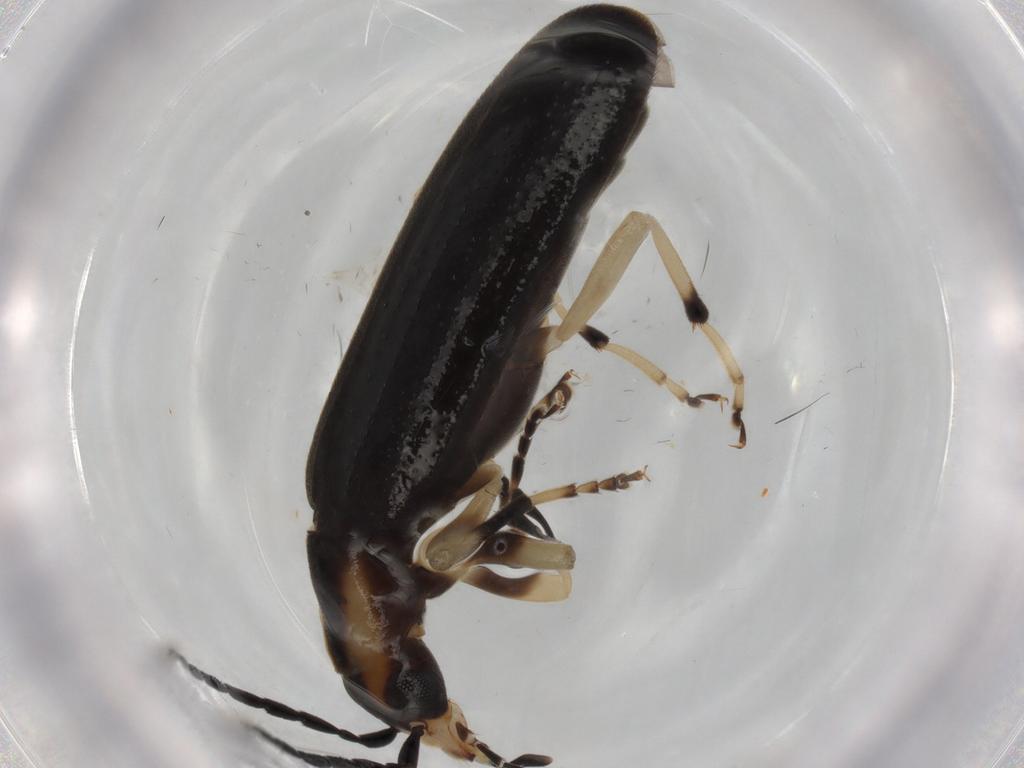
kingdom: Animalia
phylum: Arthropoda
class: Insecta
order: Coleoptera
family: Oedemeridae
